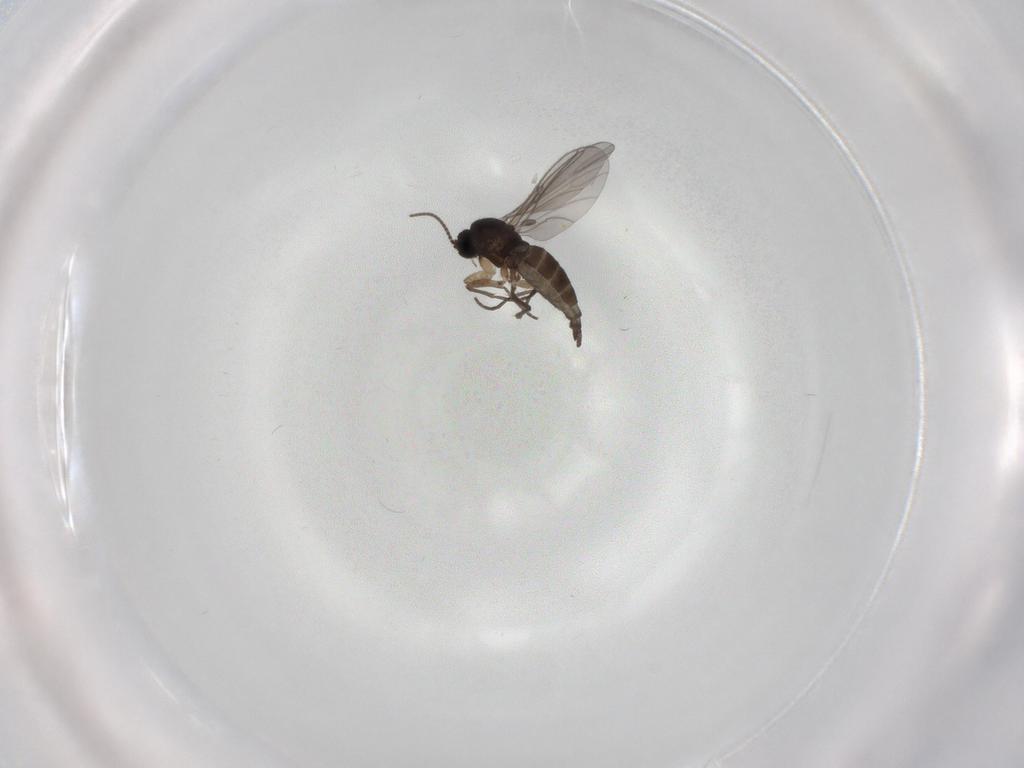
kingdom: Animalia
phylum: Arthropoda
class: Insecta
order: Diptera
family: Sciaridae
